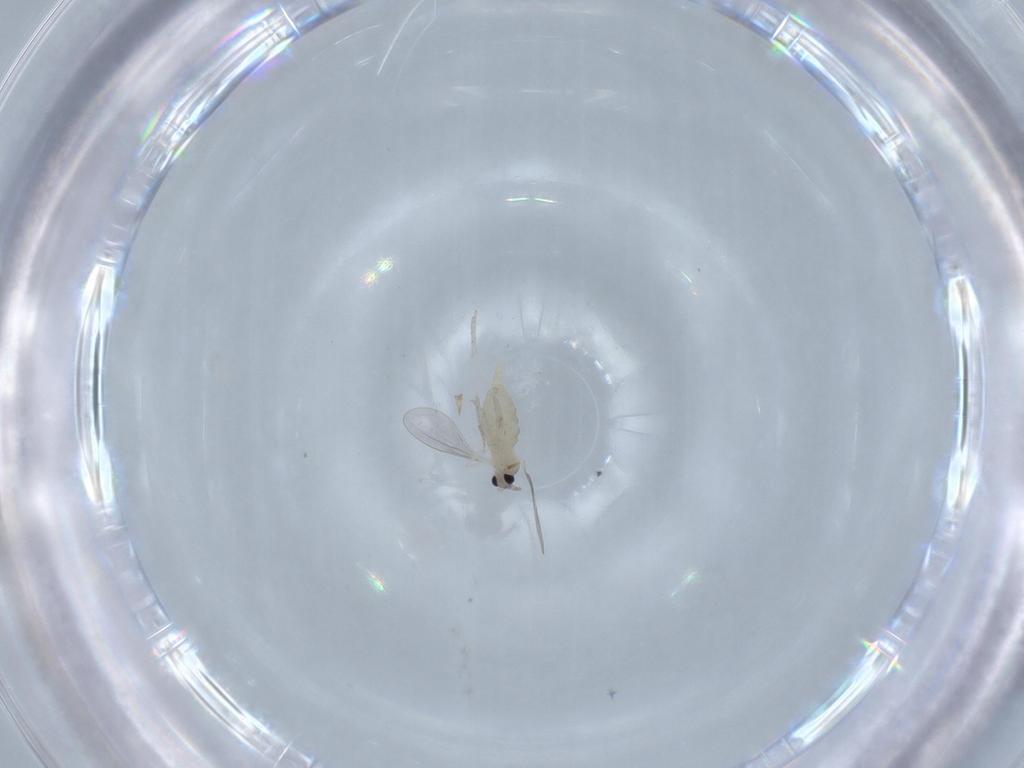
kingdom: Animalia
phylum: Arthropoda
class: Insecta
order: Diptera
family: Cecidomyiidae
